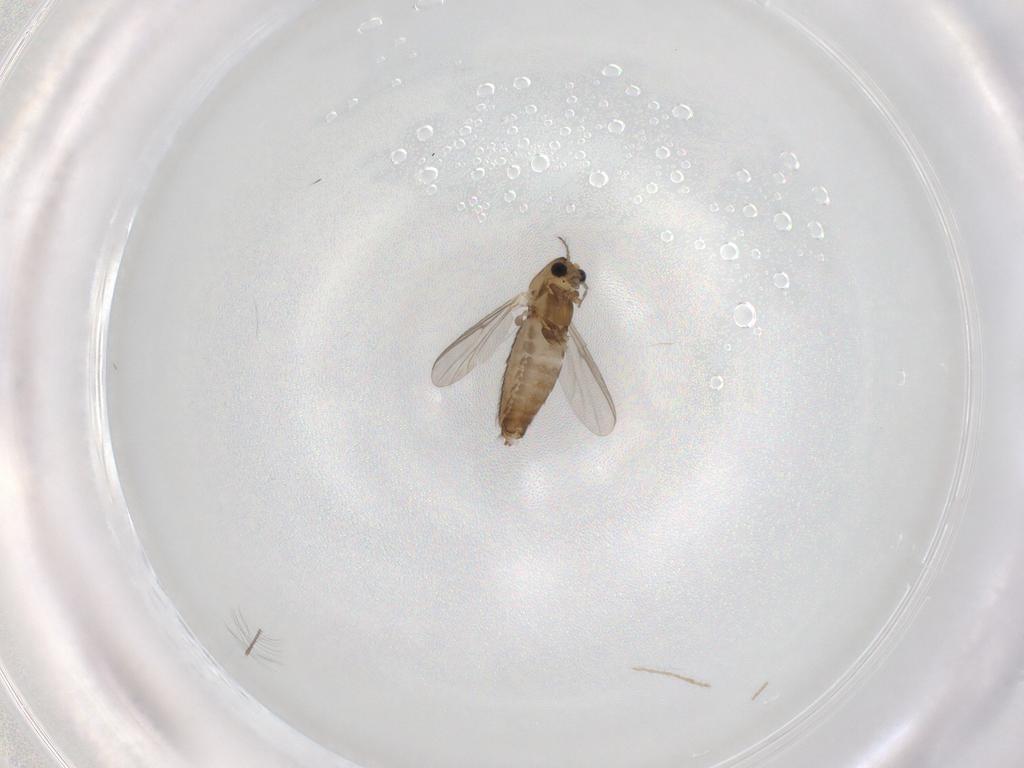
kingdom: Animalia
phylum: Arthropoda
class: Insecta
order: Diptera
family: Chironomidae
